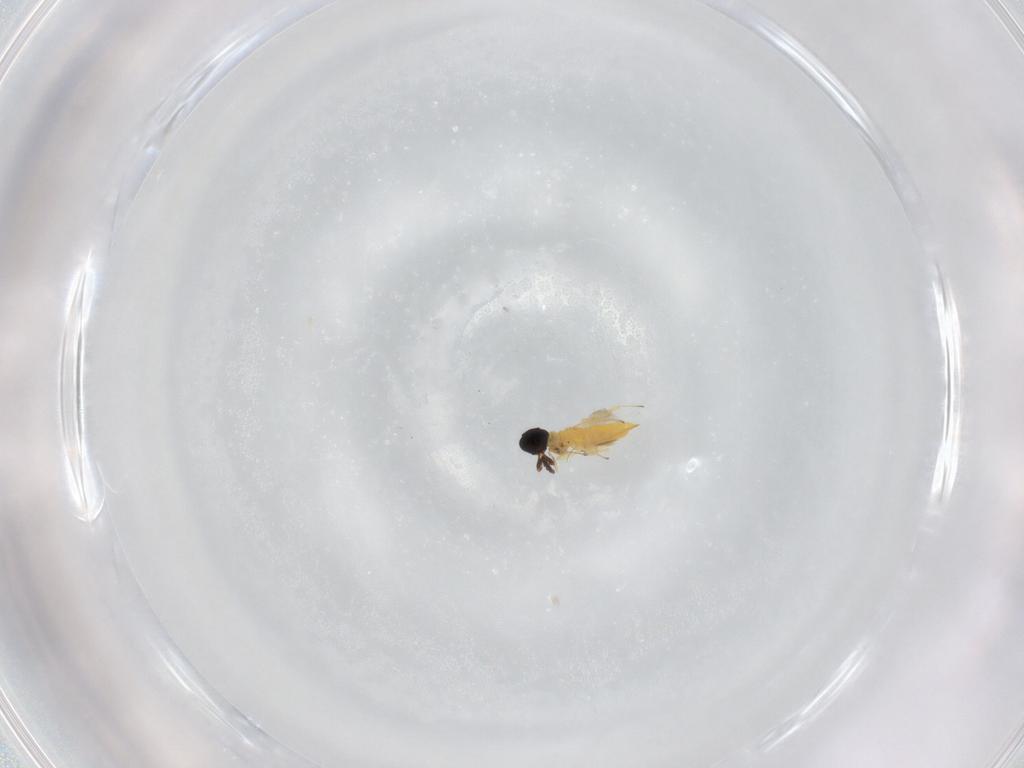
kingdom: Animalia
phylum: Arthropoda
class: Insecta
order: Hymenoptera
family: Aphelinidae
